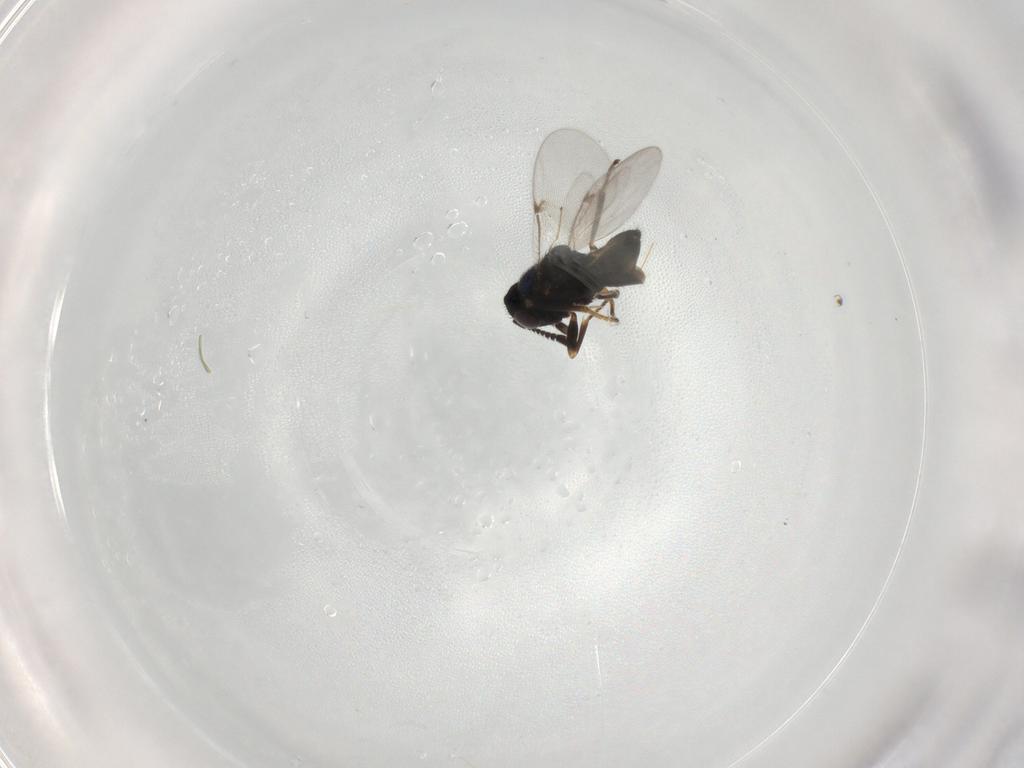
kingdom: Animalia
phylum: Arthropoda
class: Insecta
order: Hymenoptera
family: Encyrtidae
